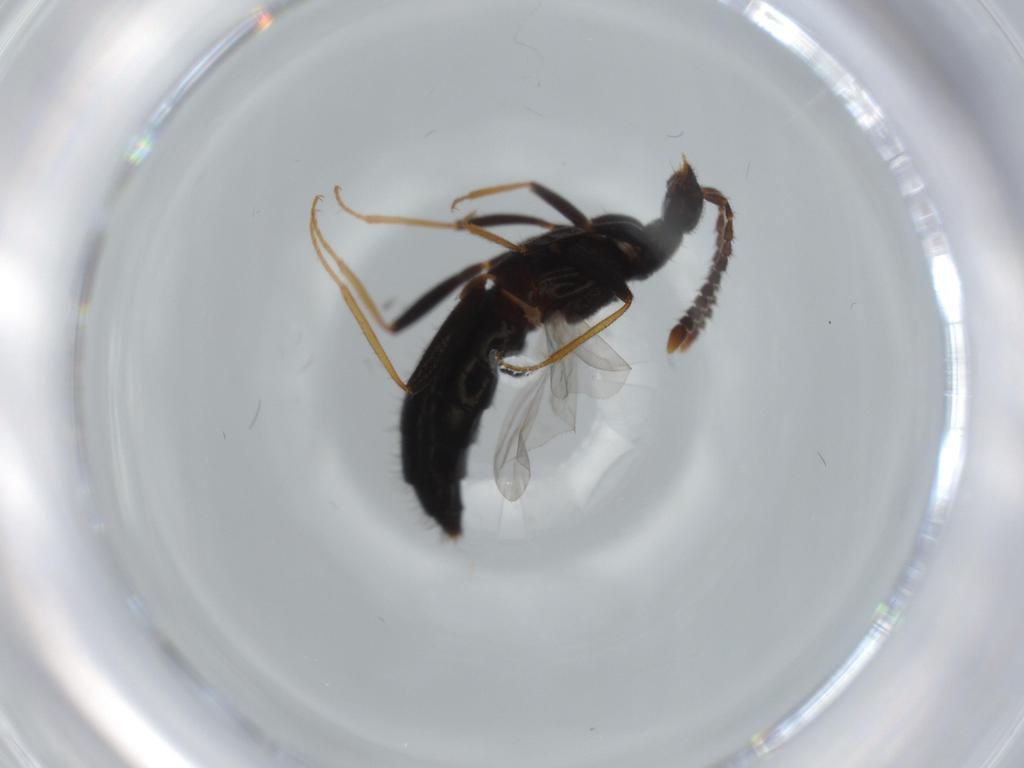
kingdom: Animalia
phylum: Arthropoda
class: Insecta
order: Coleoptera
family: Staphylinidae
